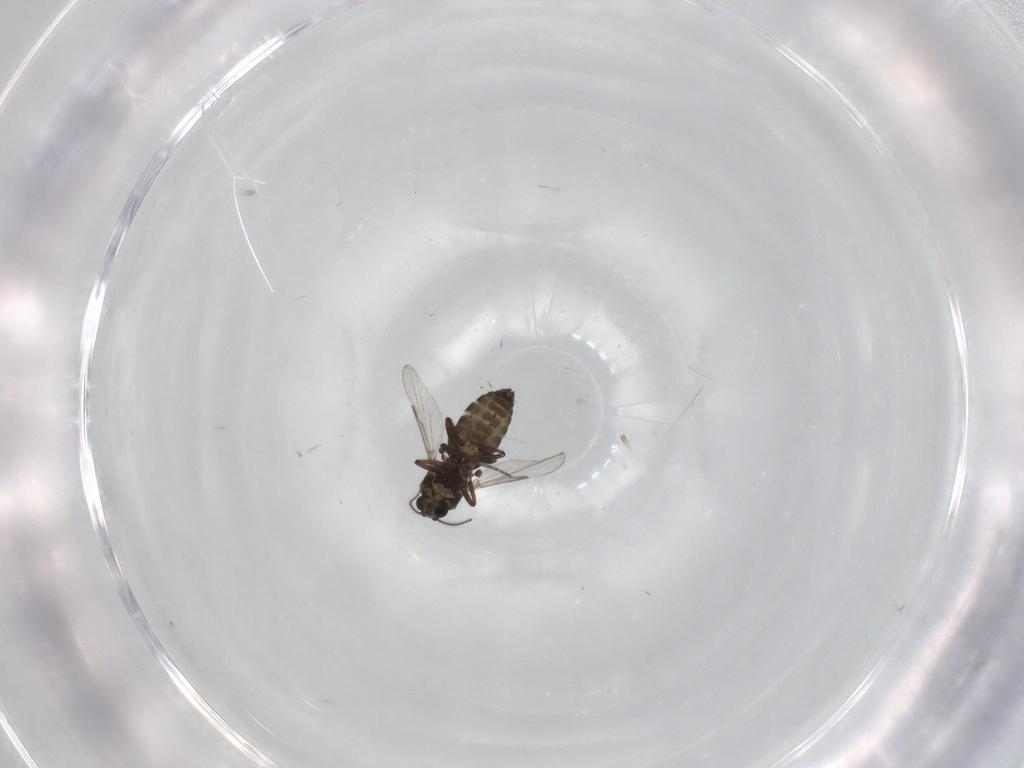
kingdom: Animalia
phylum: Arthropoda
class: Insecta
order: Diptera
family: Ceratopogonidae
